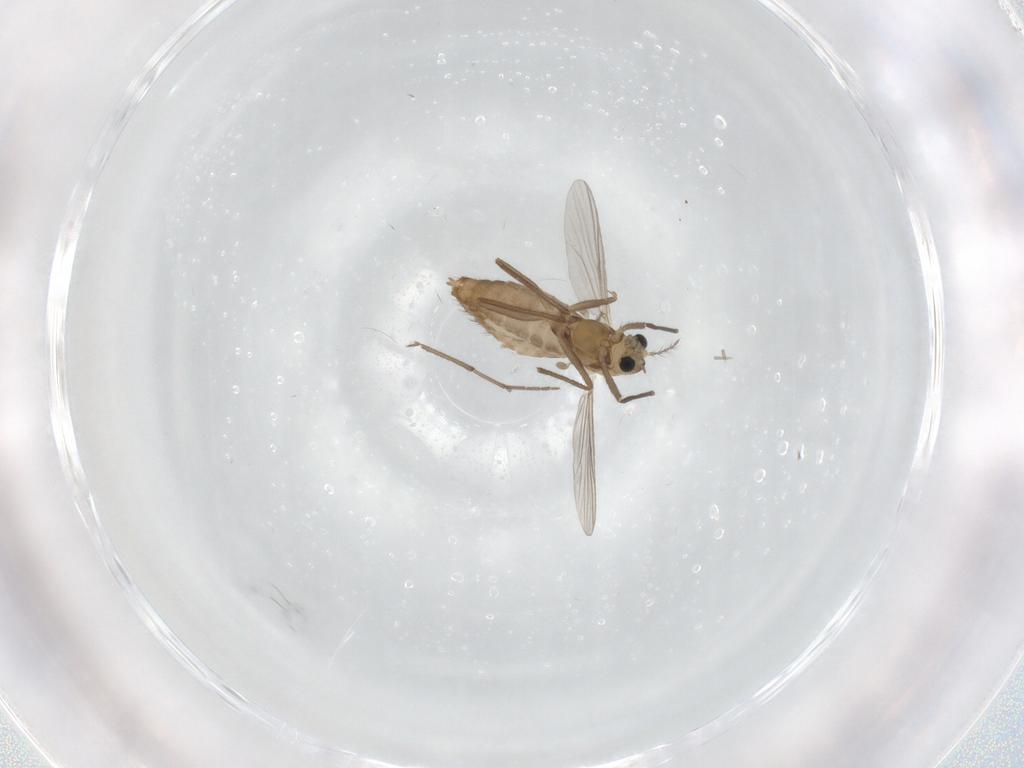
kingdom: Animalia
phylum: Arthropoda
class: Insecta
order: Diptera
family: Chironomidae
